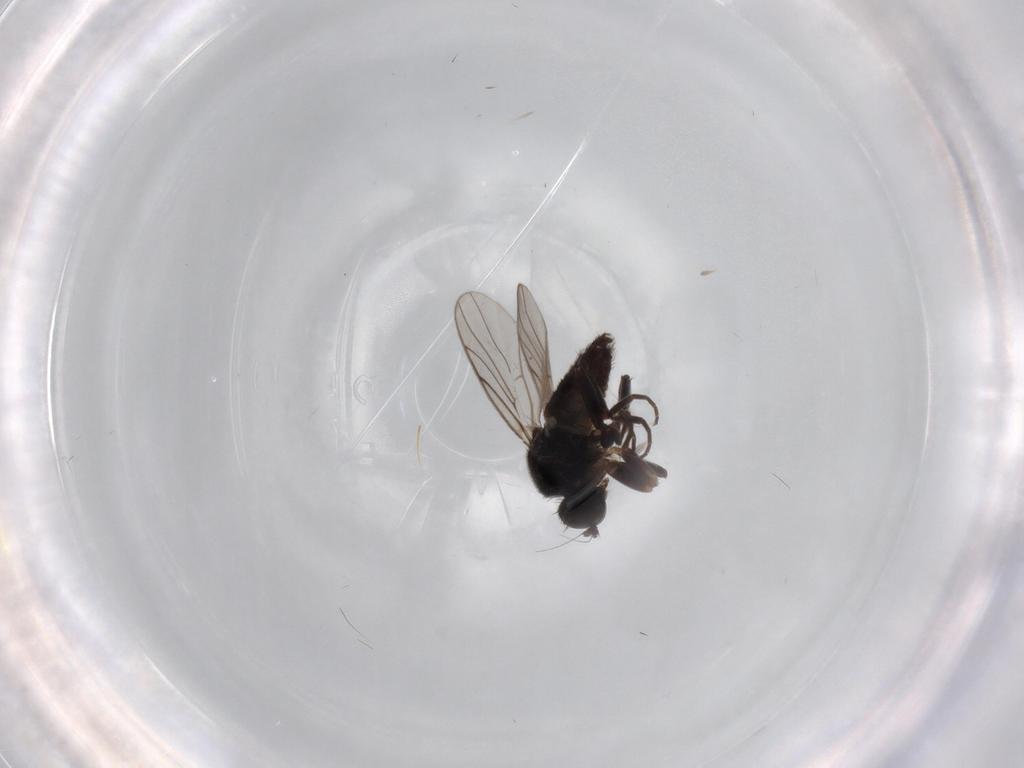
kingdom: Animalia
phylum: Arthropoda
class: Insecta
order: Diptera
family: Hybotidae
